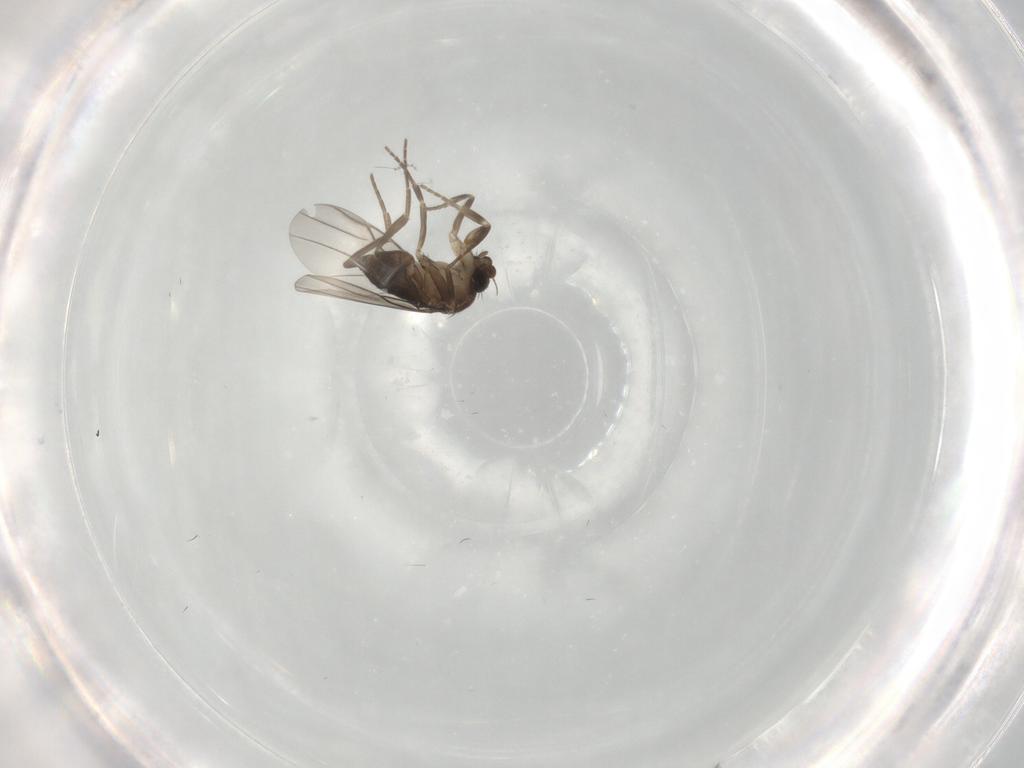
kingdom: Animalia
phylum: Arthropoda
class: Insecta
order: Diptera
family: Cecidomyiidae
